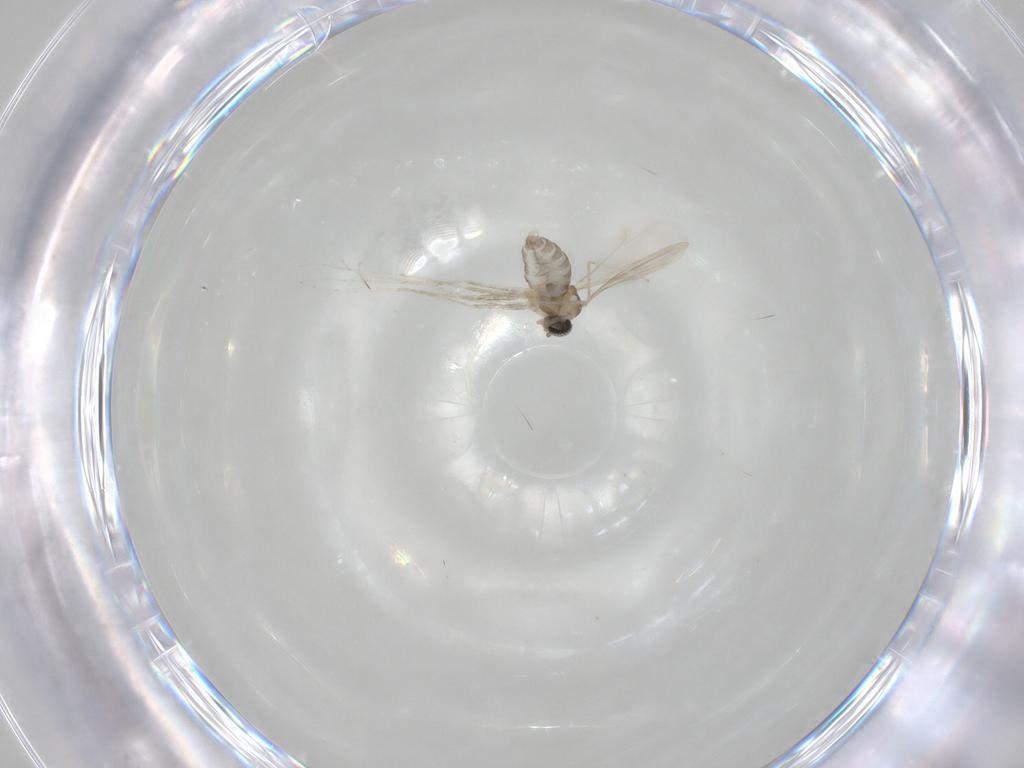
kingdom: Animalia
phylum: Arthropoda
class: Insecta
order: Diptera
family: Cecidomyiidae
